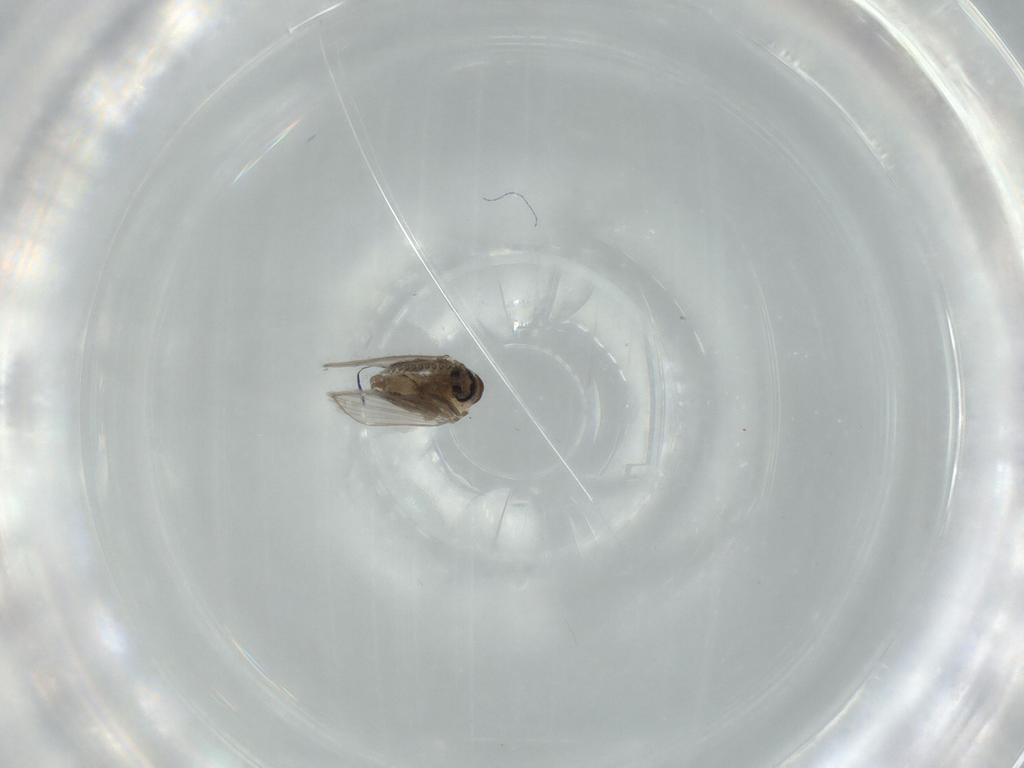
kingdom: Animalia
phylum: Arthropoda
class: Insecta
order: Diptera
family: Psychodidae
